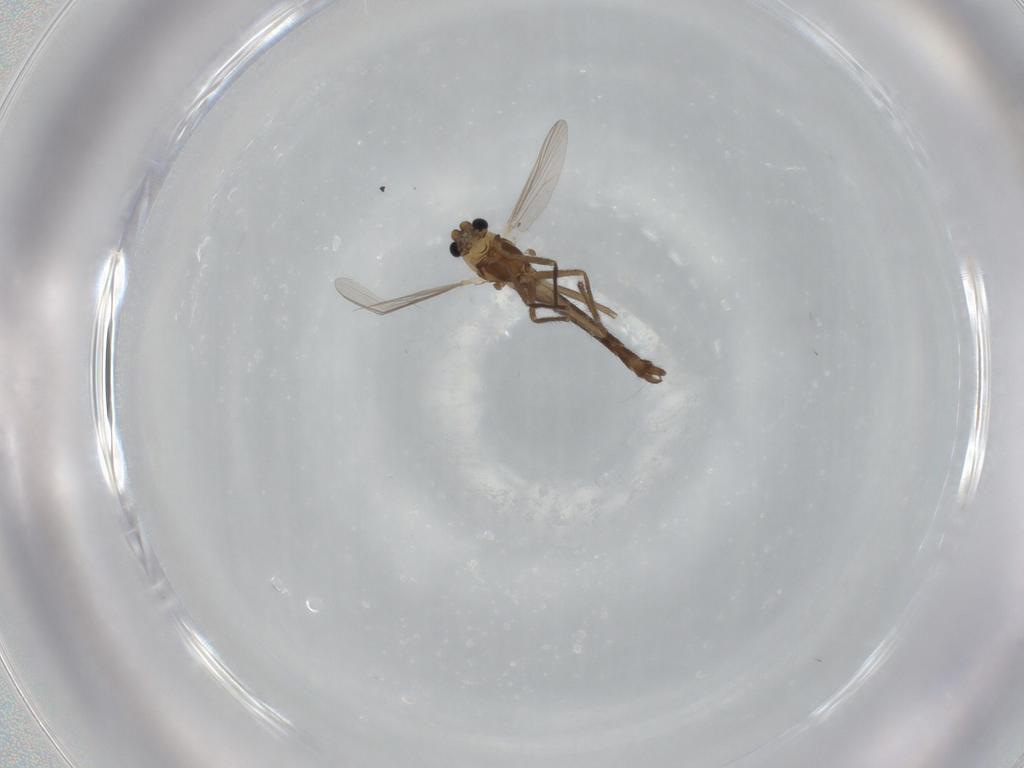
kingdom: Animalia
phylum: Arthropoda
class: Insecta
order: Diptera
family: Chironomidae
